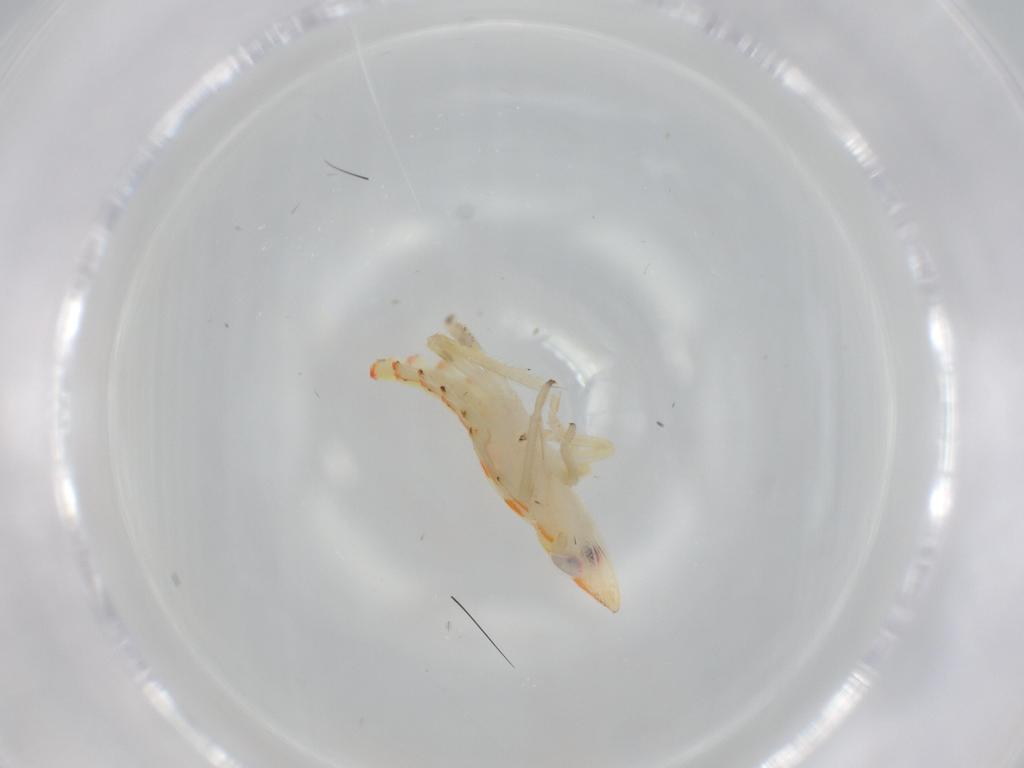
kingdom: Animalia
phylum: Arthropoda
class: Insecta
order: Hemiptera
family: Tropiduchidae
